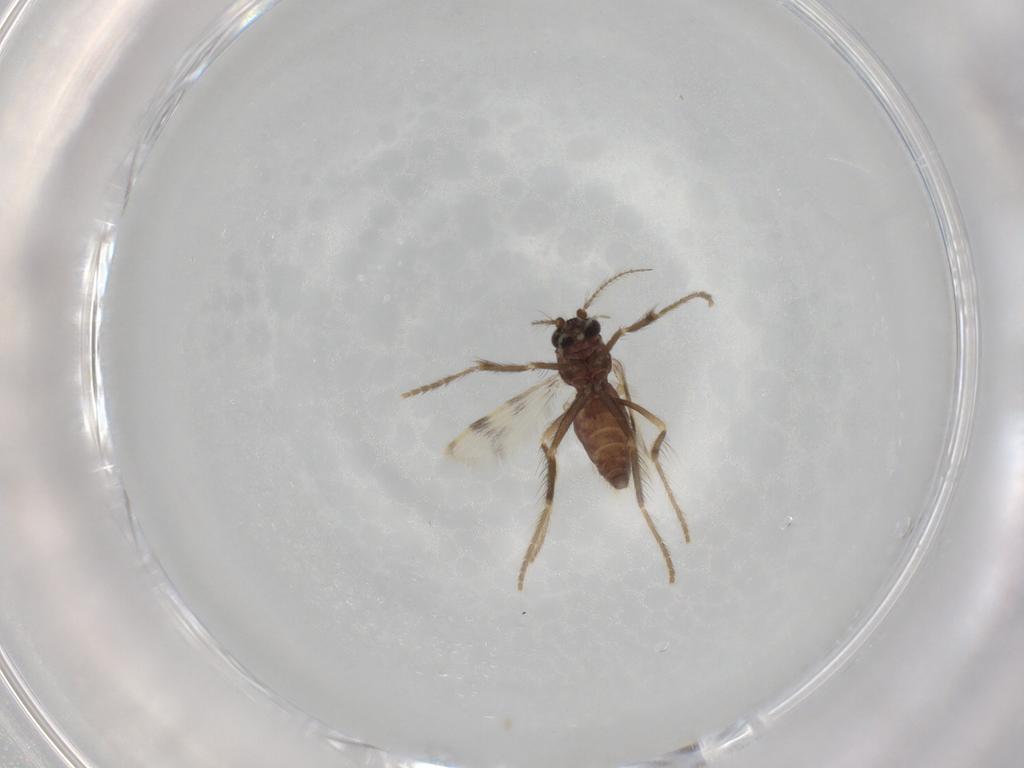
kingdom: Animalia
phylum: Arthropoda
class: Insecta
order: Diptera
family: Corethrellidae
